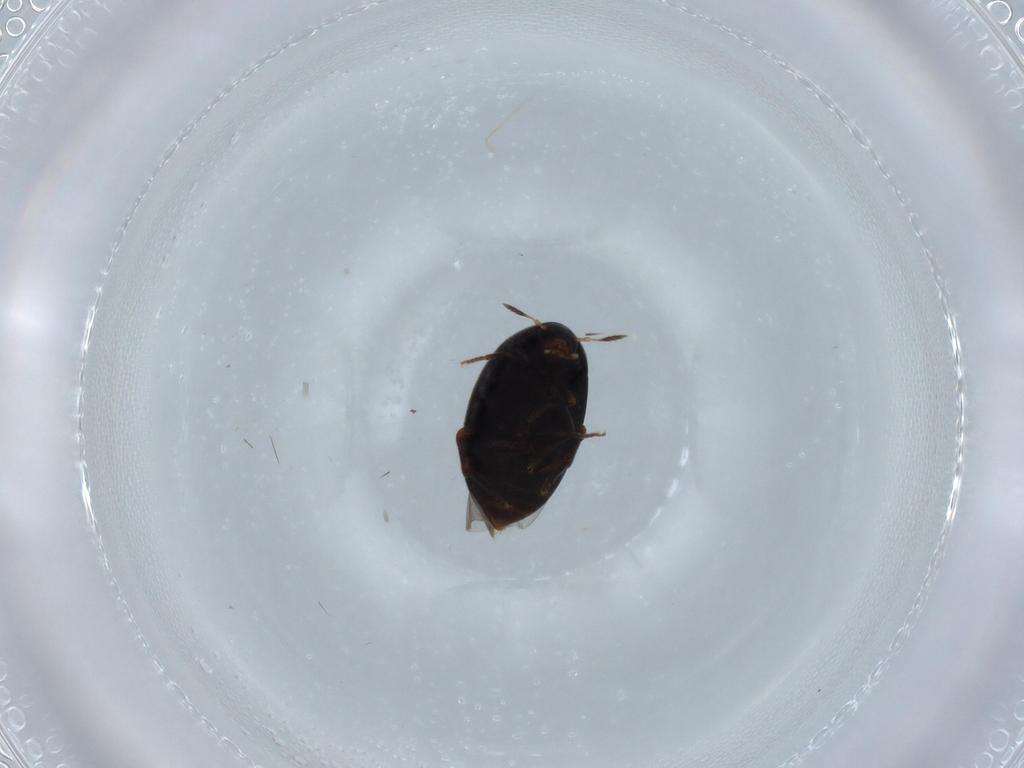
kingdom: Animalia
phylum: Arthropoda
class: Insecta
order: Coleoptera
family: Melandryidae
